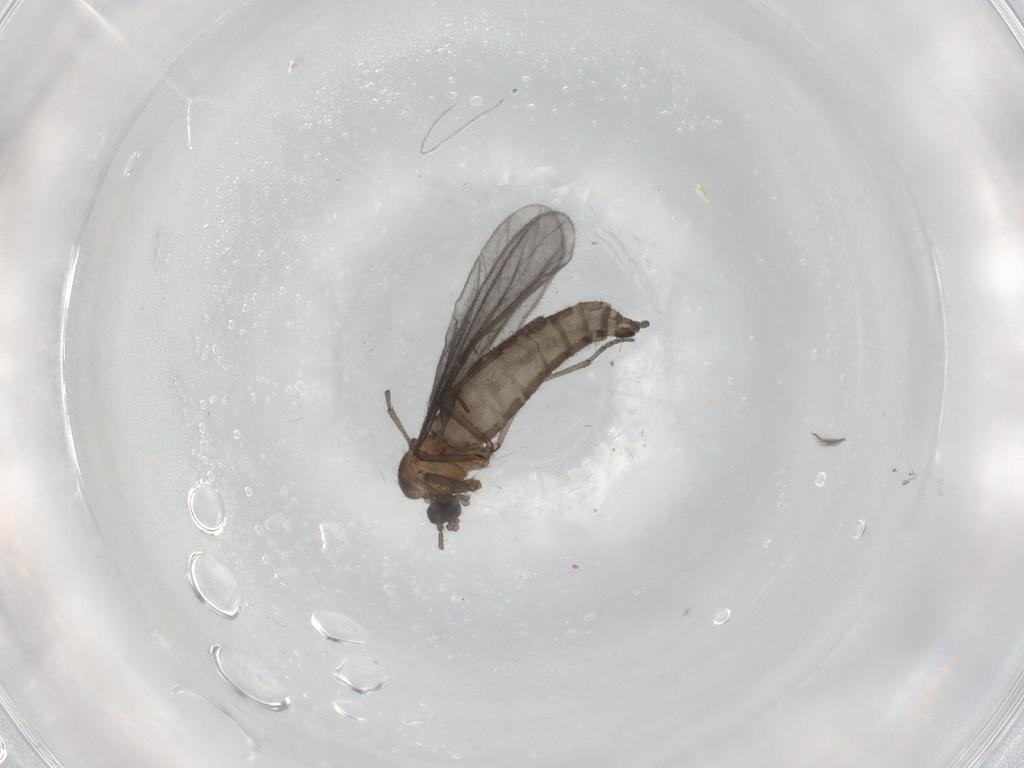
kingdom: Animalia
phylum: Arthropoda
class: Insecta
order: Diptera
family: Sciaridae
